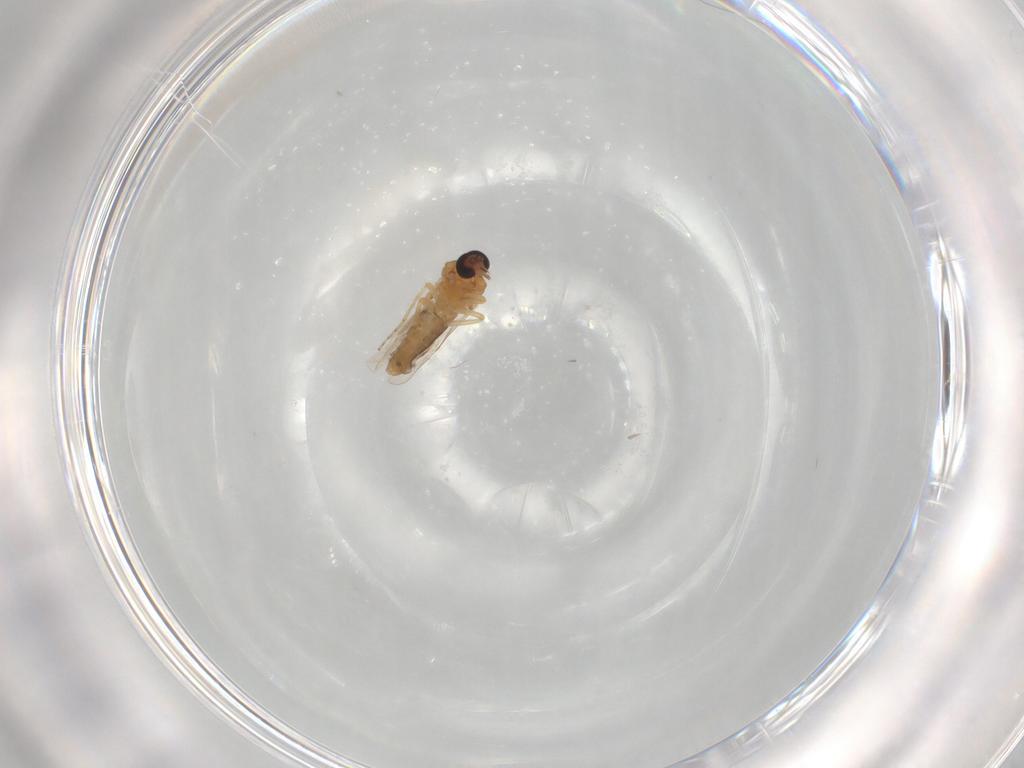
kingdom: Animalia
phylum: Arthropoda
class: Insecta
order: Diptera
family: Ceratopogonidae
